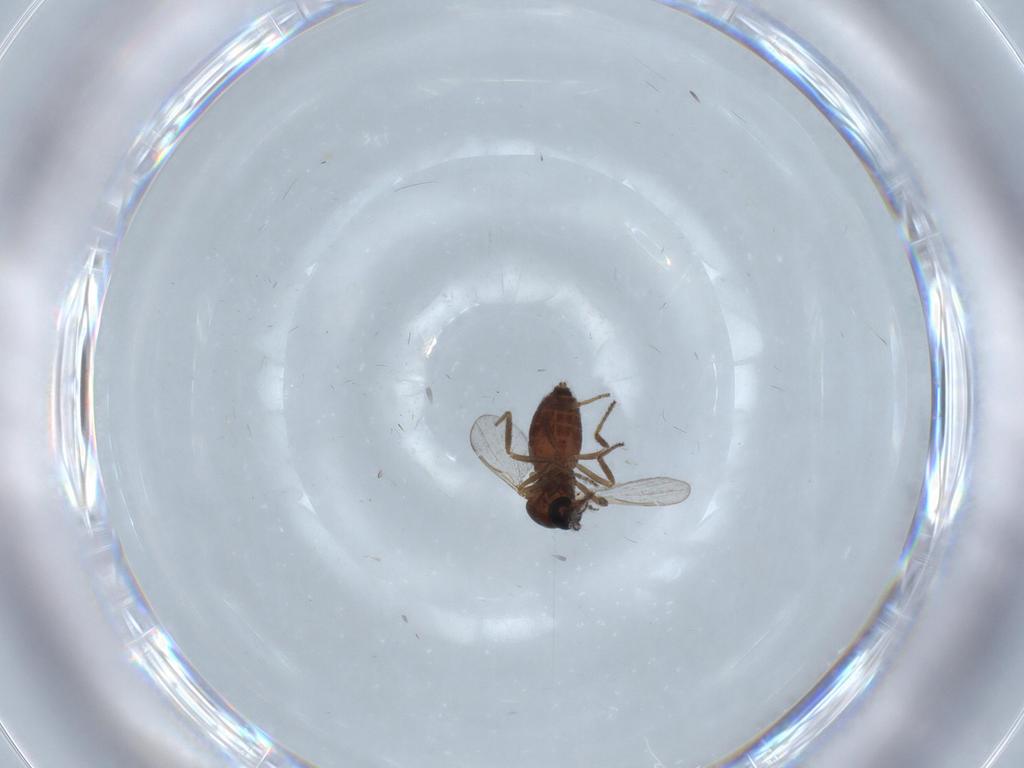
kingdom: Animalia
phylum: Arthropoda
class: Insecta
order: Diptera
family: Ceratopogonidae
